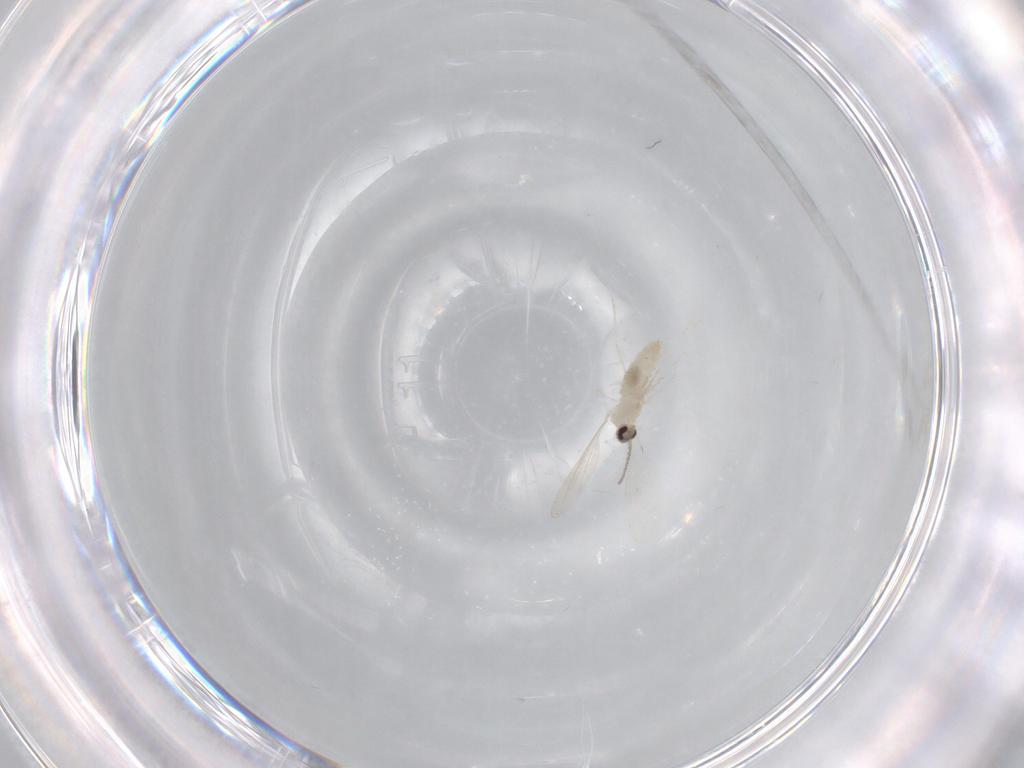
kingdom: Animalia
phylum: Arthropoda
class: Insecta
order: Diptera
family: Cecidomyiidae
